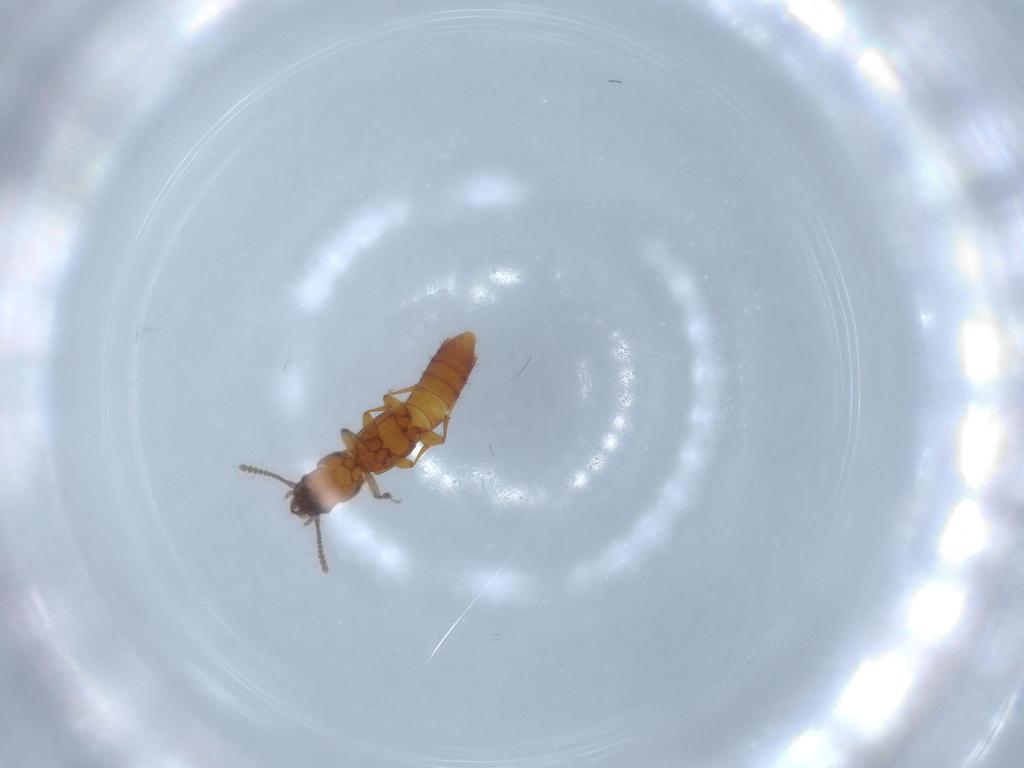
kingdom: Animalia
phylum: Arthropoda
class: Insecta
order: Coleoptera
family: Staphylinidae
